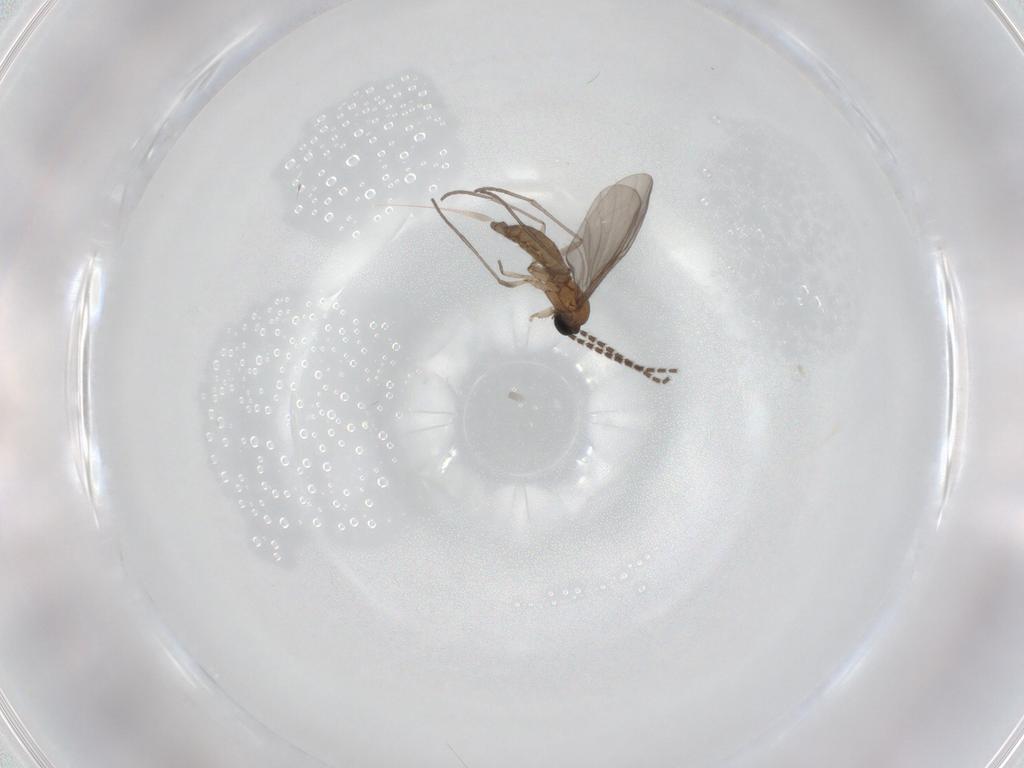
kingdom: Animalia
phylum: Arthropoda
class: Insecta
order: Diptera
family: Sciaridae
